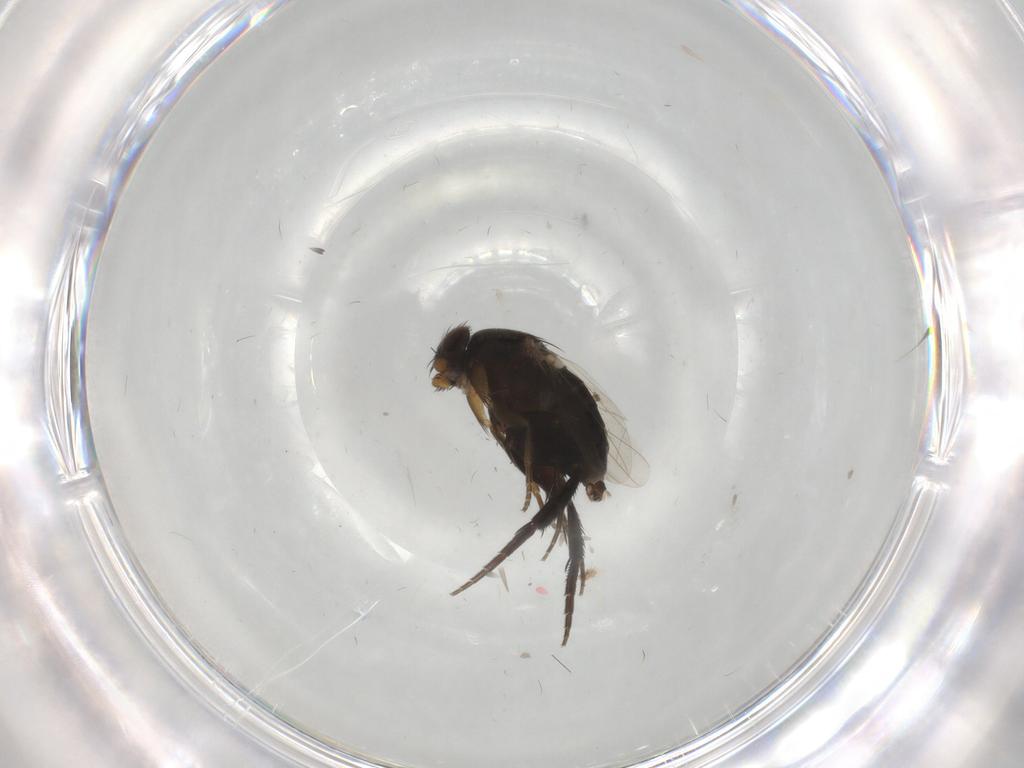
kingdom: Animalia
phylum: Arthropoda
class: Insecta
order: Diptera
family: Phoridae
